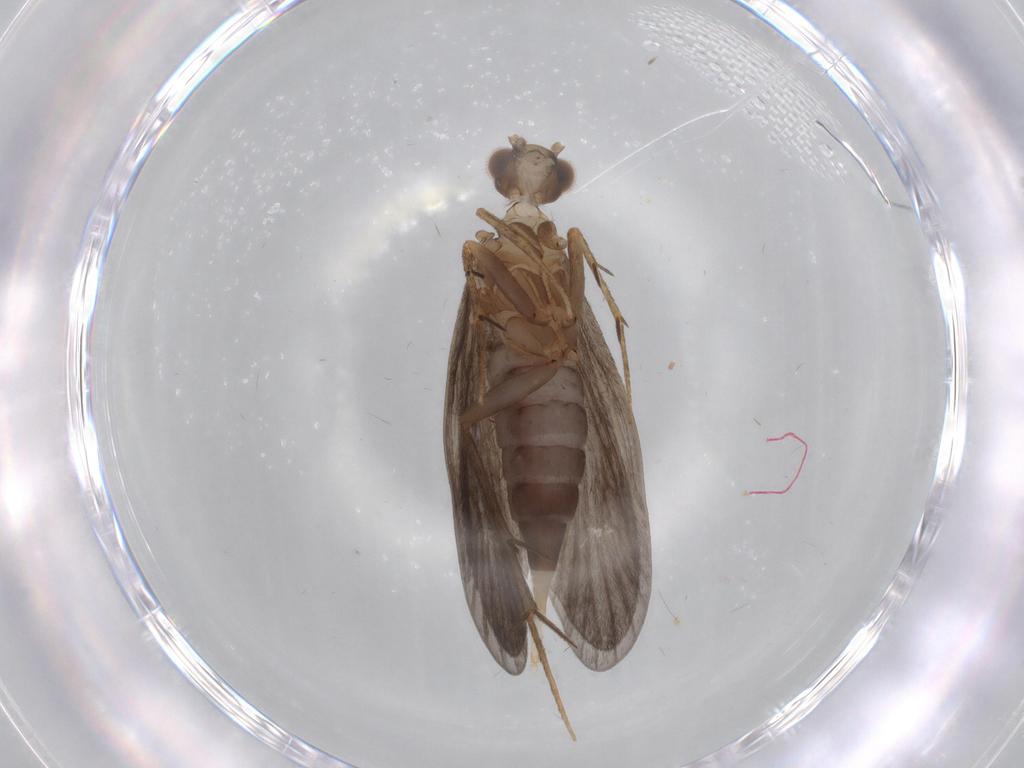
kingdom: Animalia
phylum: Arthropoda
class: Insecta
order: Trichoptera
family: Philopotamidae
